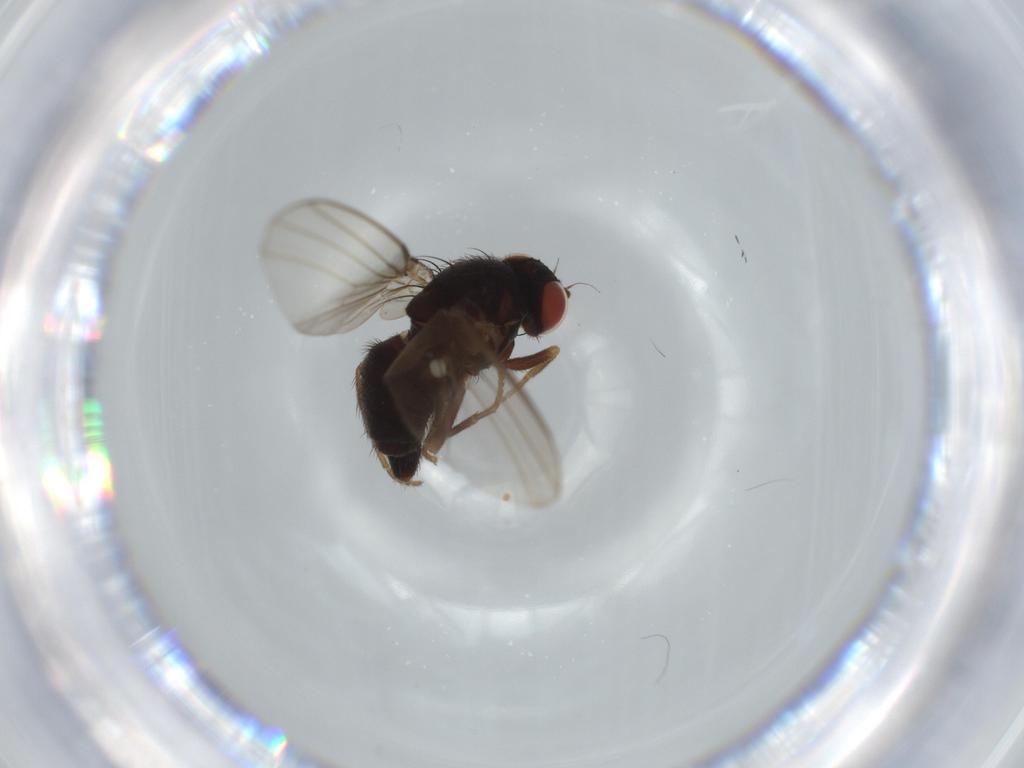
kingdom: Animalia
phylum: Arthropoda
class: Insecta
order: Diptera
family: Agromyzidae
